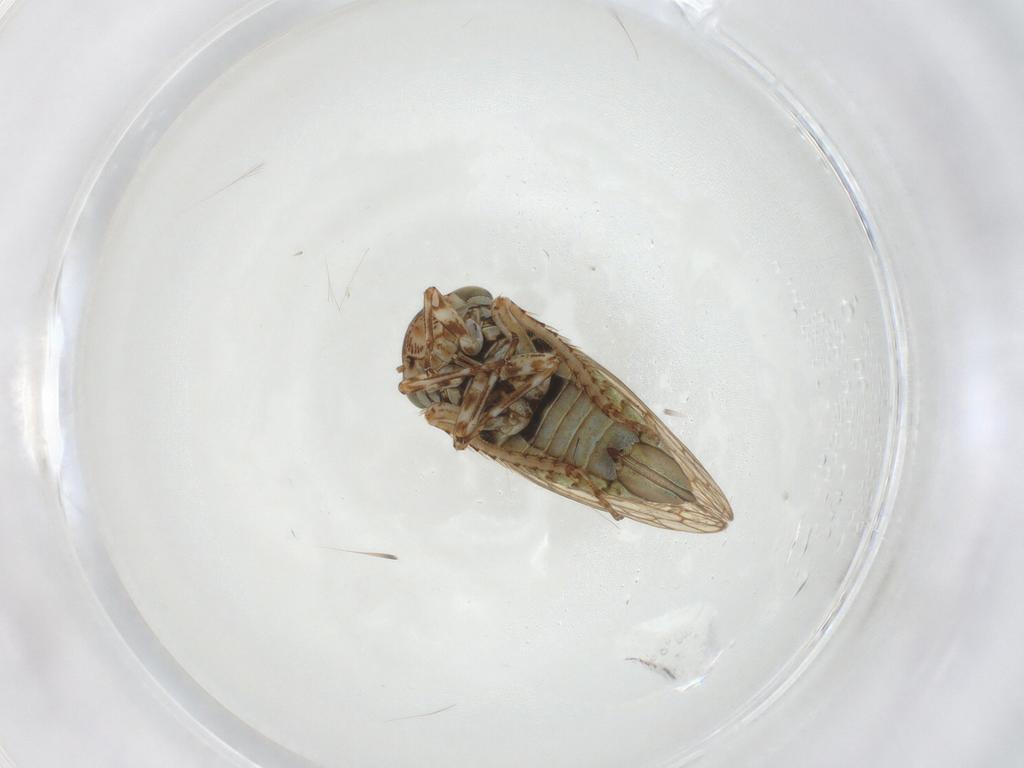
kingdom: Animalia
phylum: Arthropoda
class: Insecta
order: Hemiptera
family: Cicadellidae
